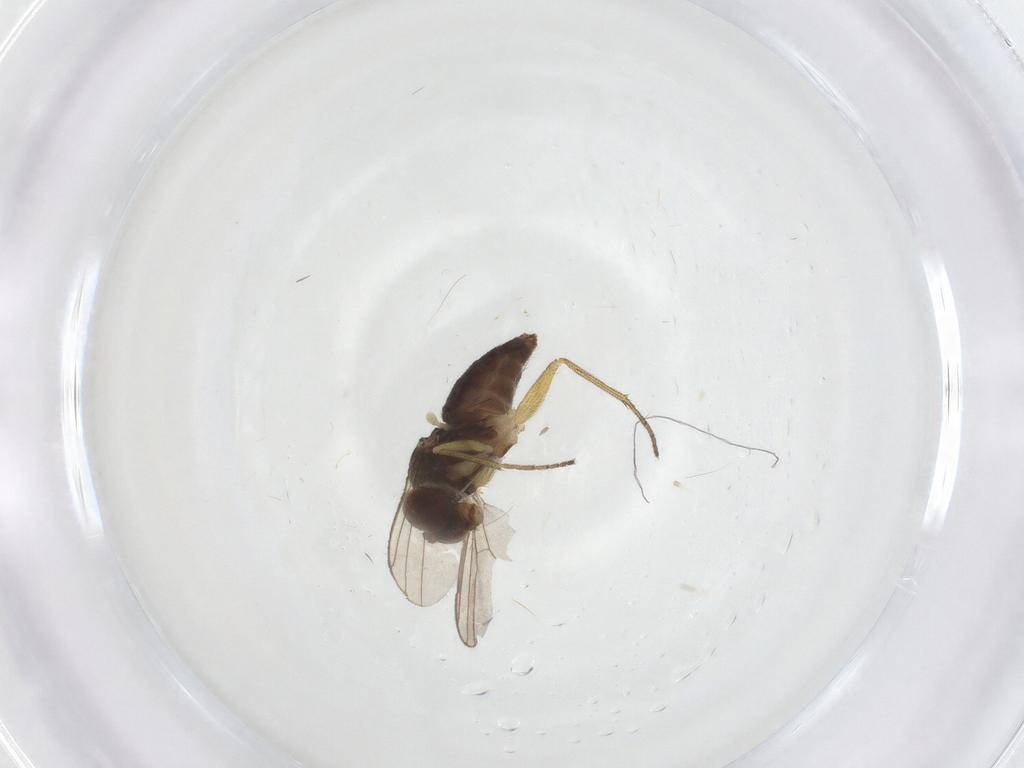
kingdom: Animalia
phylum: Arthropoda
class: Insecta
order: Diptera
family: Dolichopodidae
